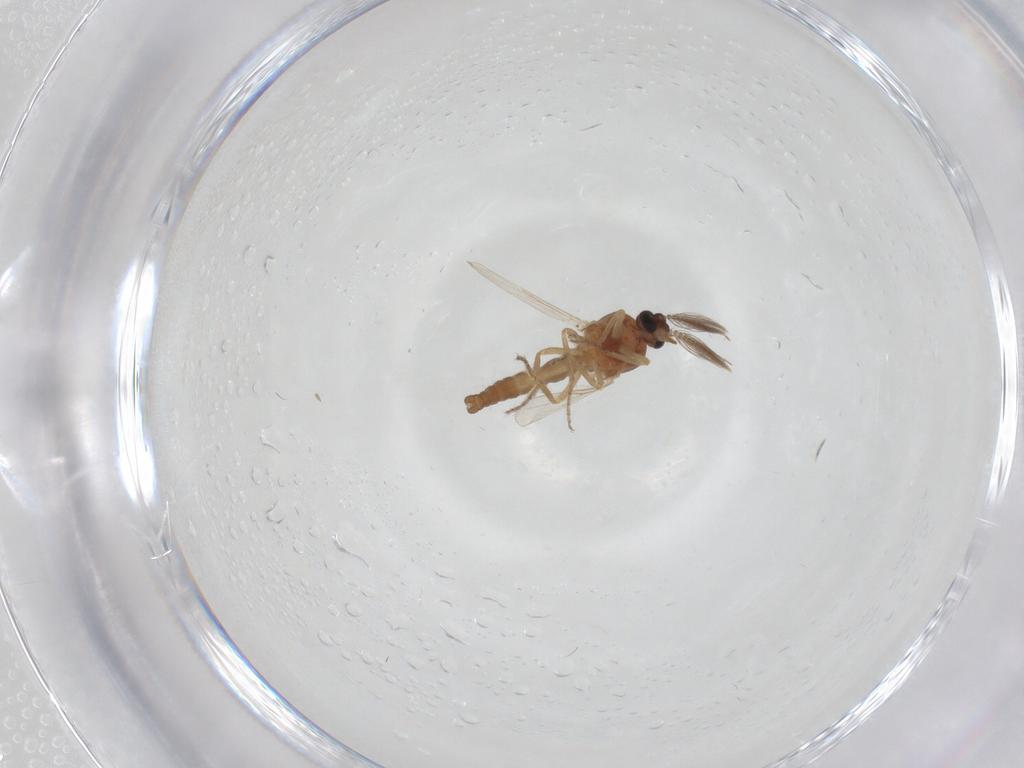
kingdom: Animalia
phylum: Arthropoda
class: Insecta
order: Diptera
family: Ceratopogonidae
